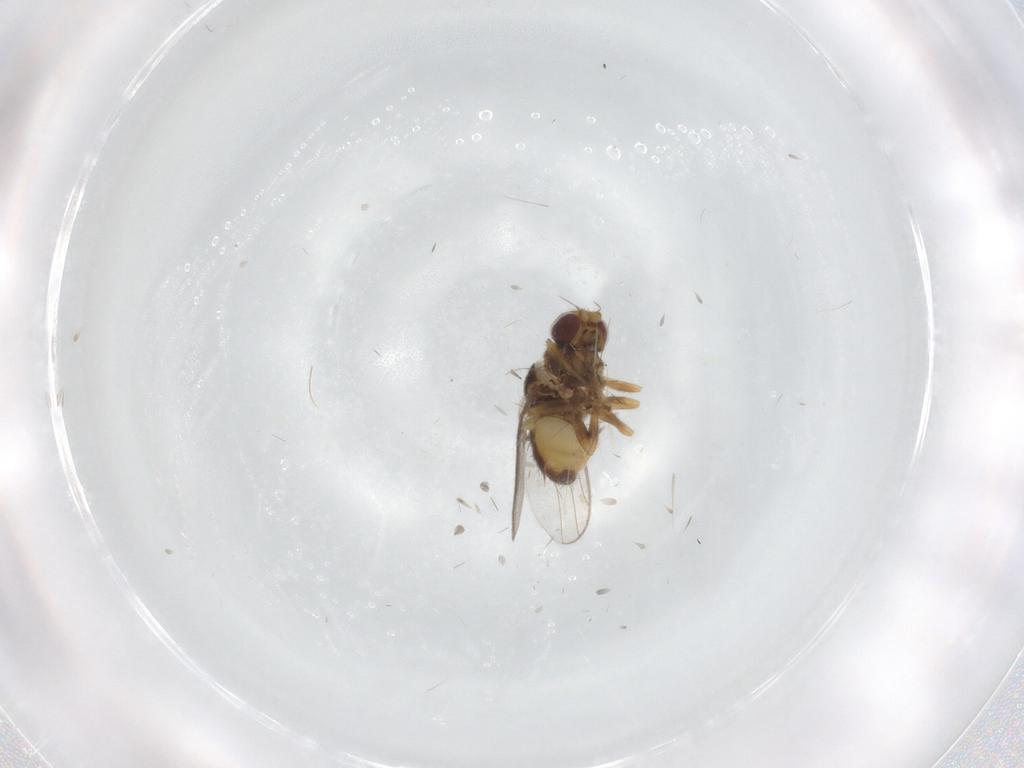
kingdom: Animalia
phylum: Arthropoda
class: Insecta
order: Diptera
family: Chloropidae
